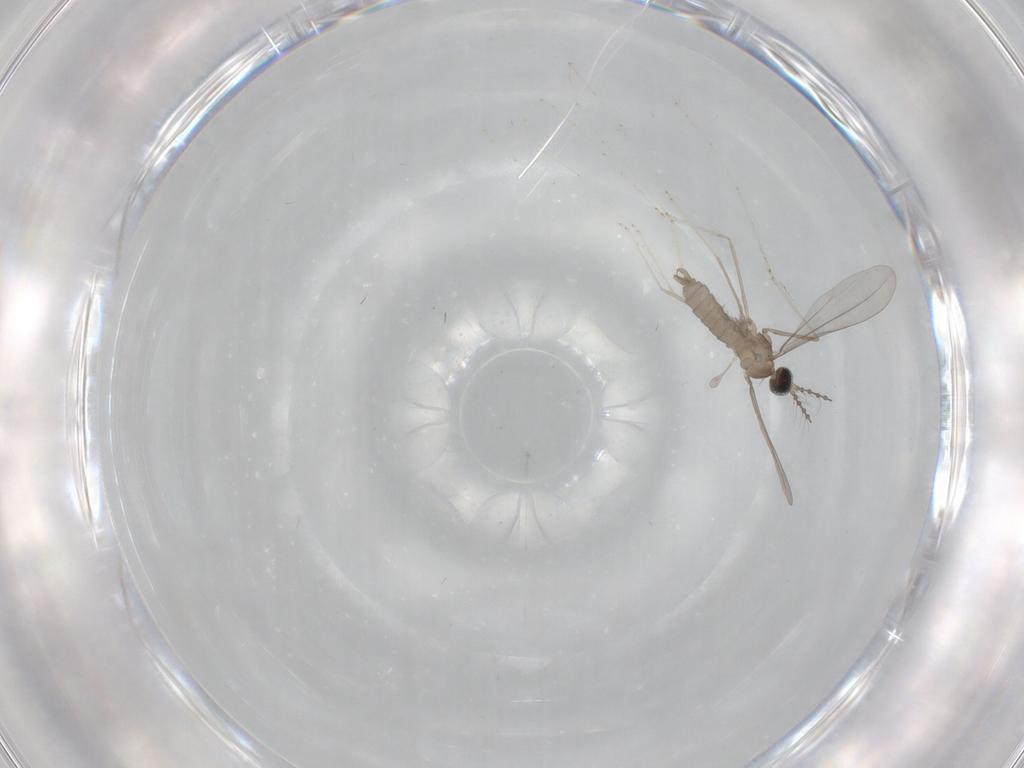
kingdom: Animalia
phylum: Arthropoda
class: Insecta
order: Diptera
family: Cecidomyiidae
